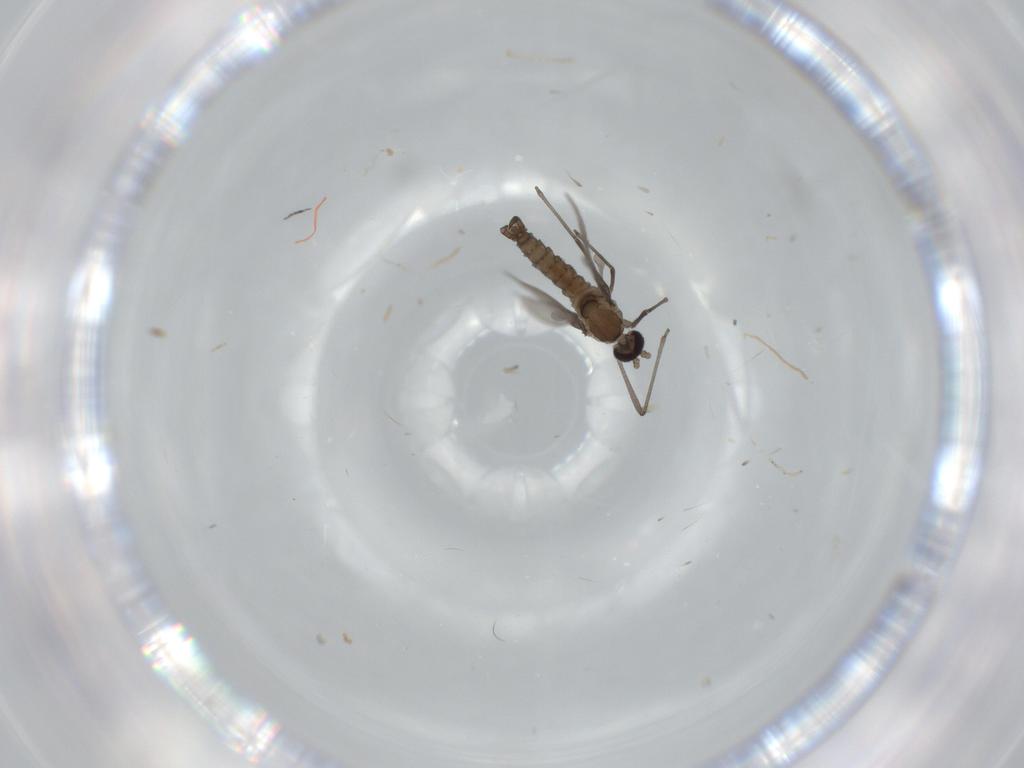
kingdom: Animalia
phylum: Arthropoda
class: Insecta
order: Diptera
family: Cecidomyiidae
